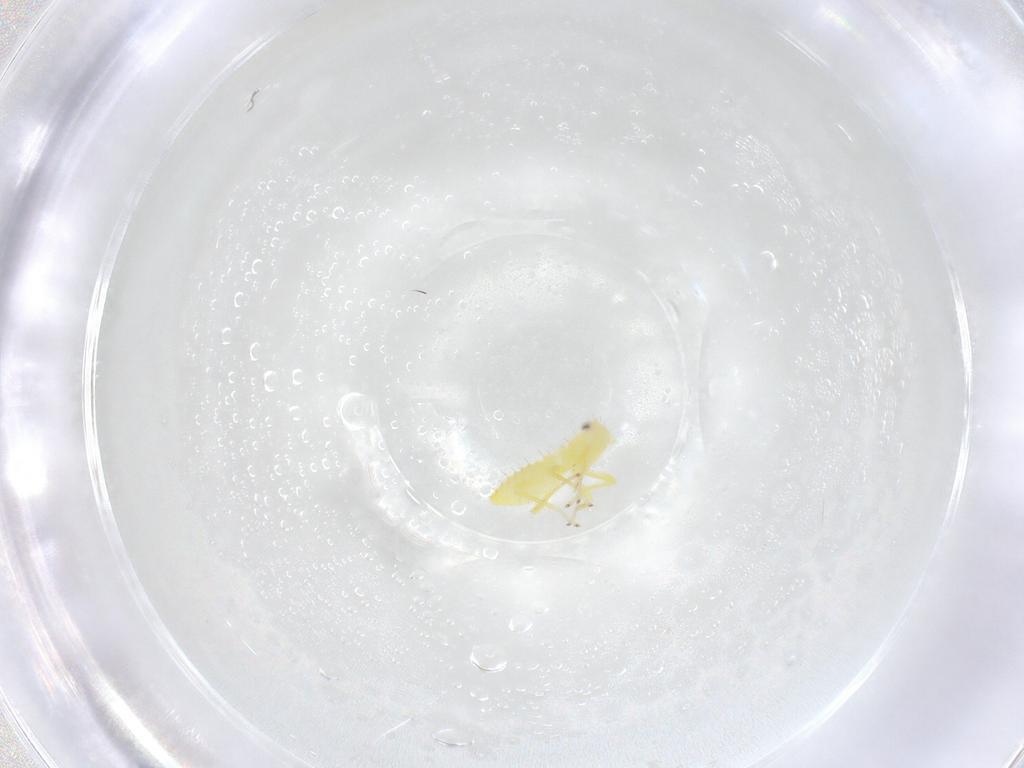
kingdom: Animalia
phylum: Arthropoda
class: Insecta
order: Hemiptera
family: Cicadellidae
